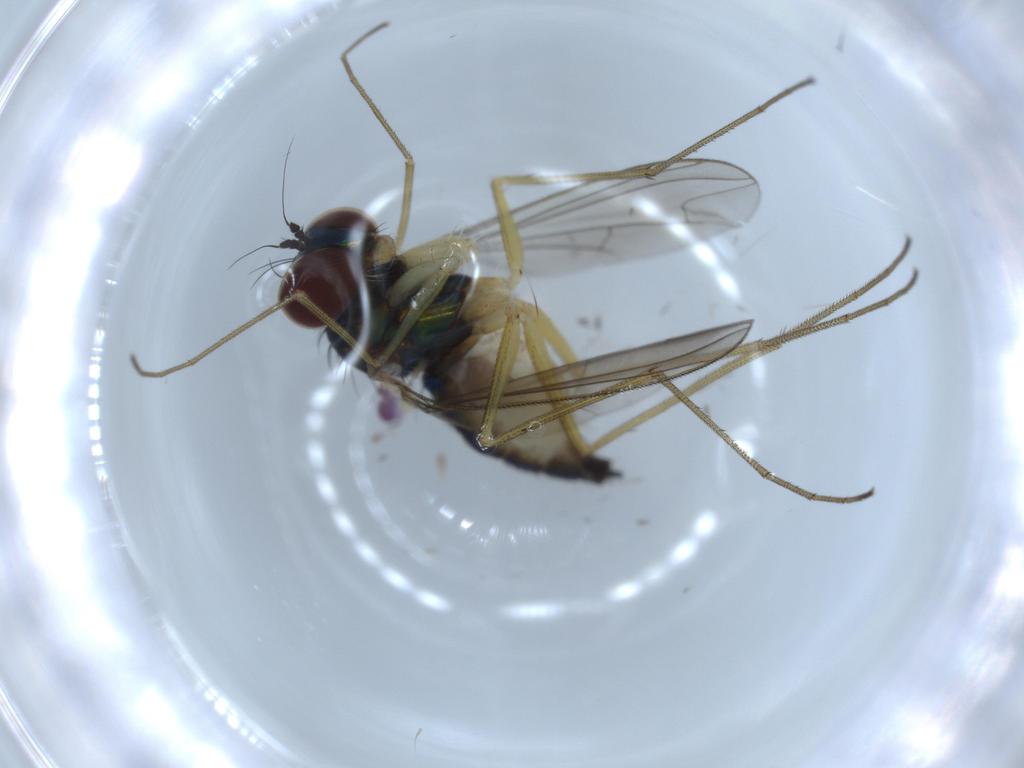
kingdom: Animalia
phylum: Arthropoda
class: Insecta
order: Diptera
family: Dolichopodidae
